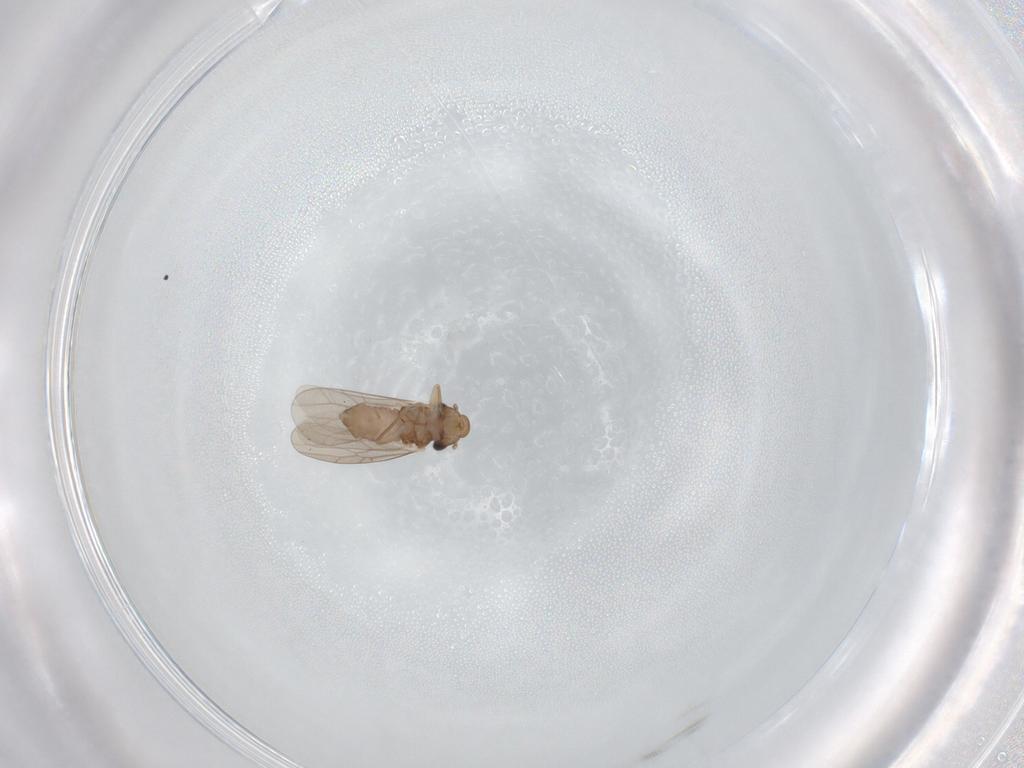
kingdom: Animalia
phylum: Arthropoda
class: Insecta
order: Psocodea
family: Lepidopsocidae
